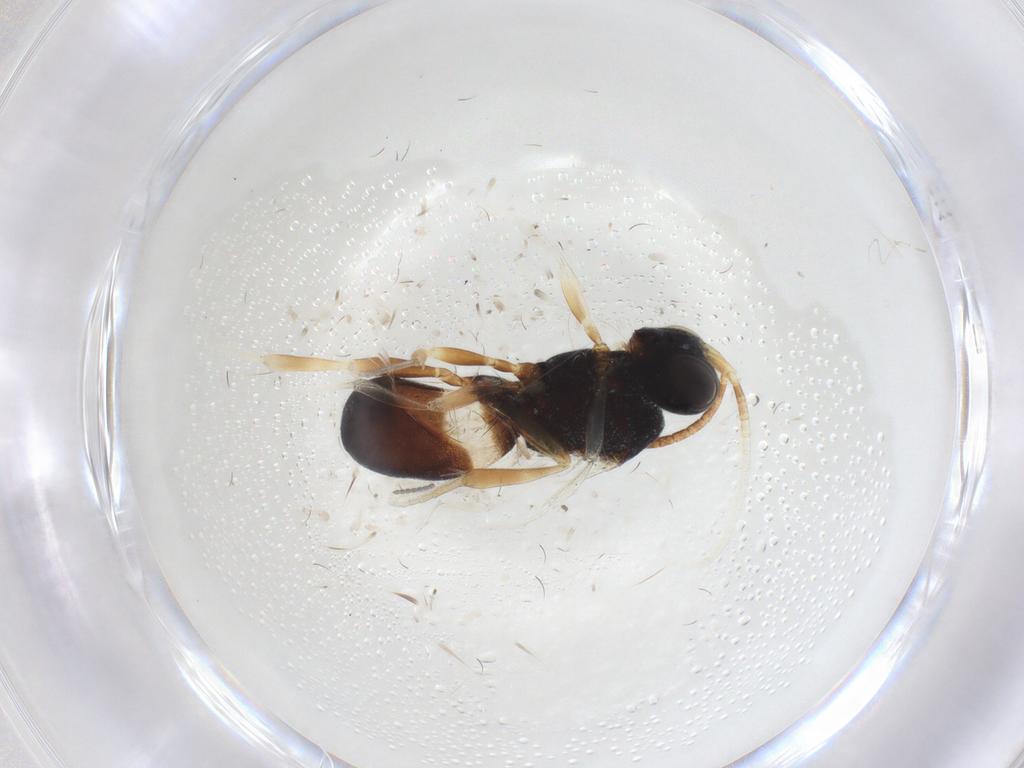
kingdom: Animalia
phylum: Arthropoda
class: Insecta
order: Hymenoptera
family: Braconidae
